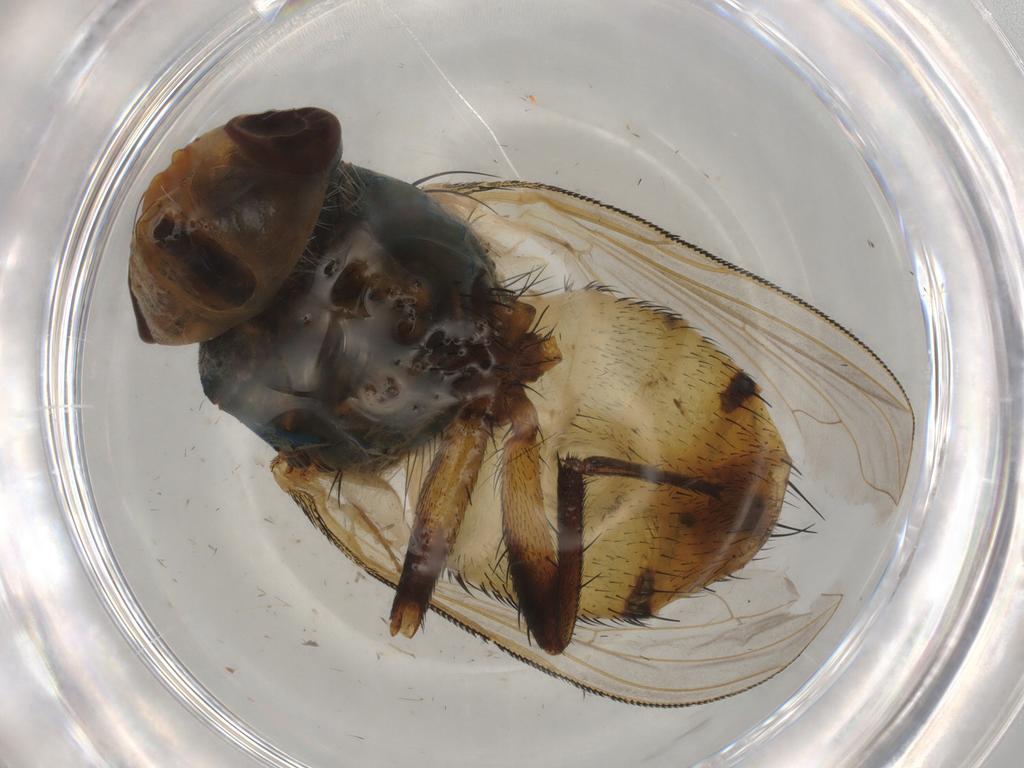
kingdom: Animalia
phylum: Arthropoda
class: Insecta
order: Diptera
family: Calliphoridae
